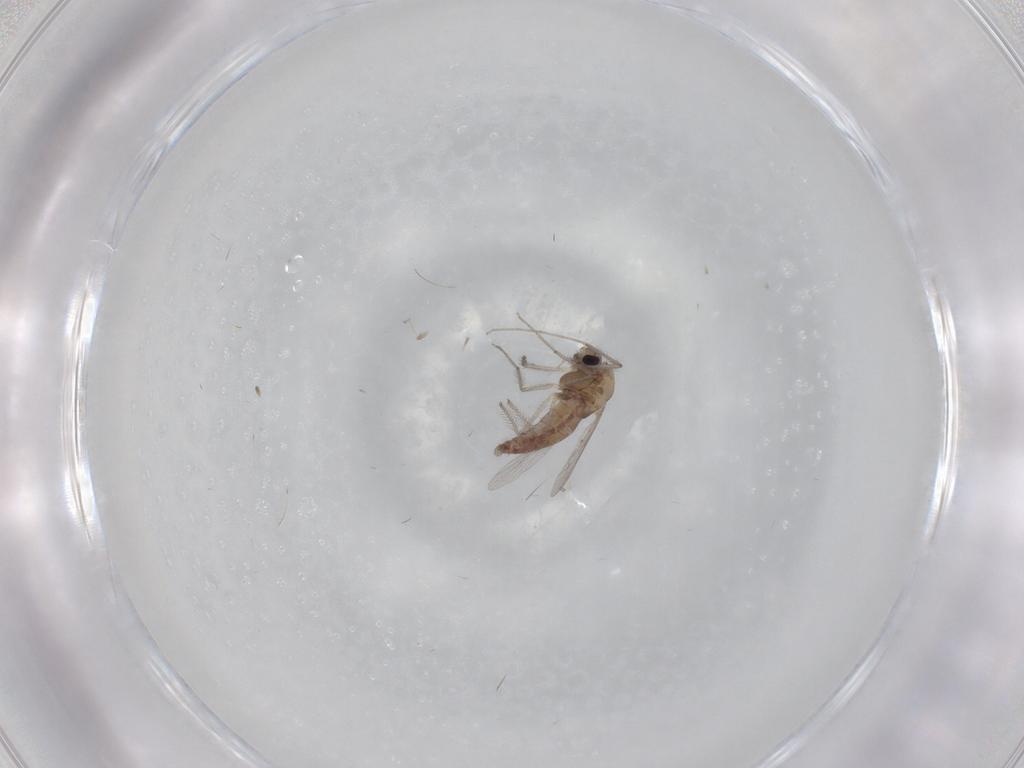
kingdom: Animalia
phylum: Arthropoda
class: Insecta
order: Diptera
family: Chironomidae
